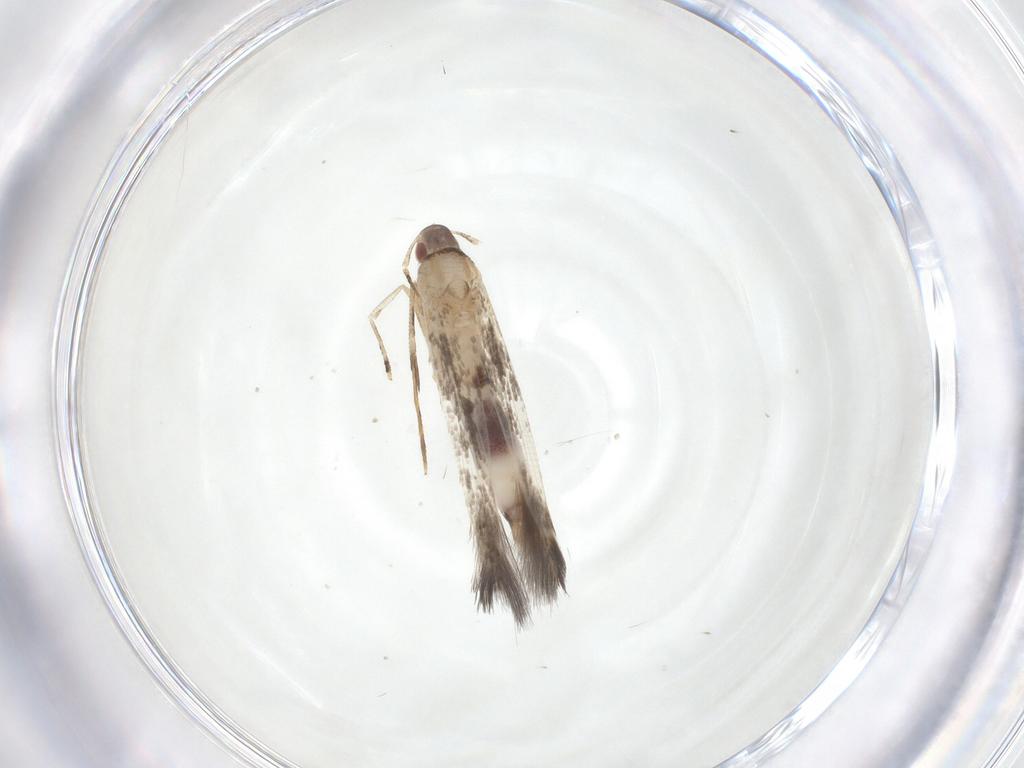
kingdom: Animalia
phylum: Arthropoda
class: Insecta
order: Lepidoptera
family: Cosmopterigidae
